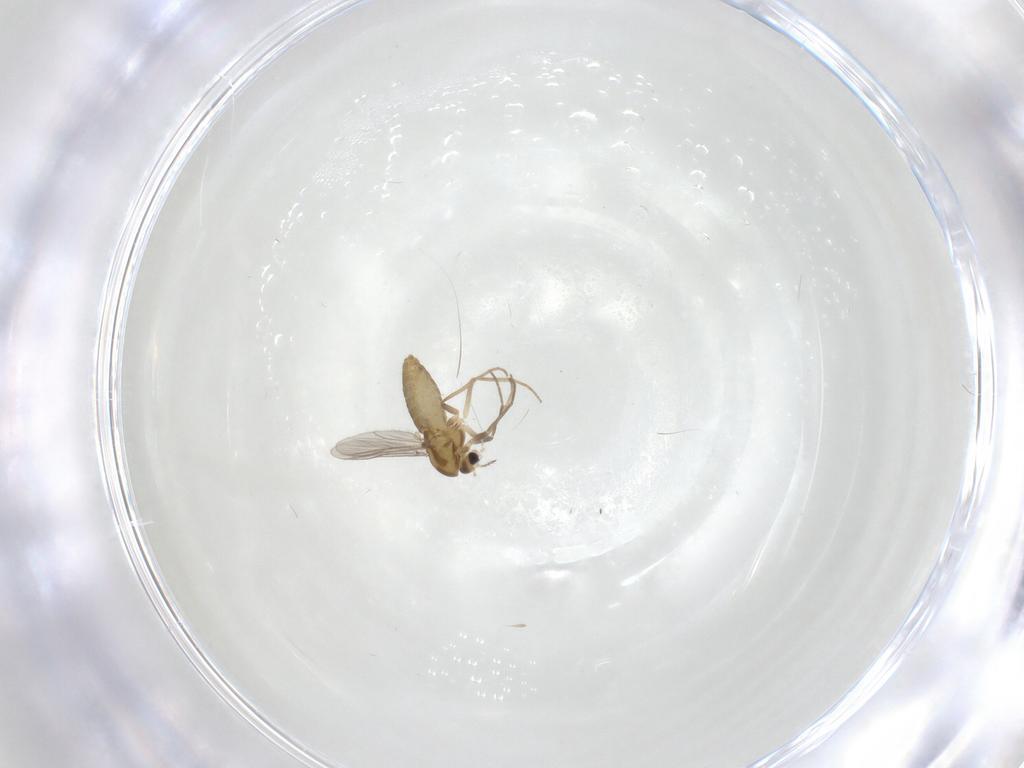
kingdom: Animalia
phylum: Arthropoda
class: Insecta
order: Diptera
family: Chironomidae
